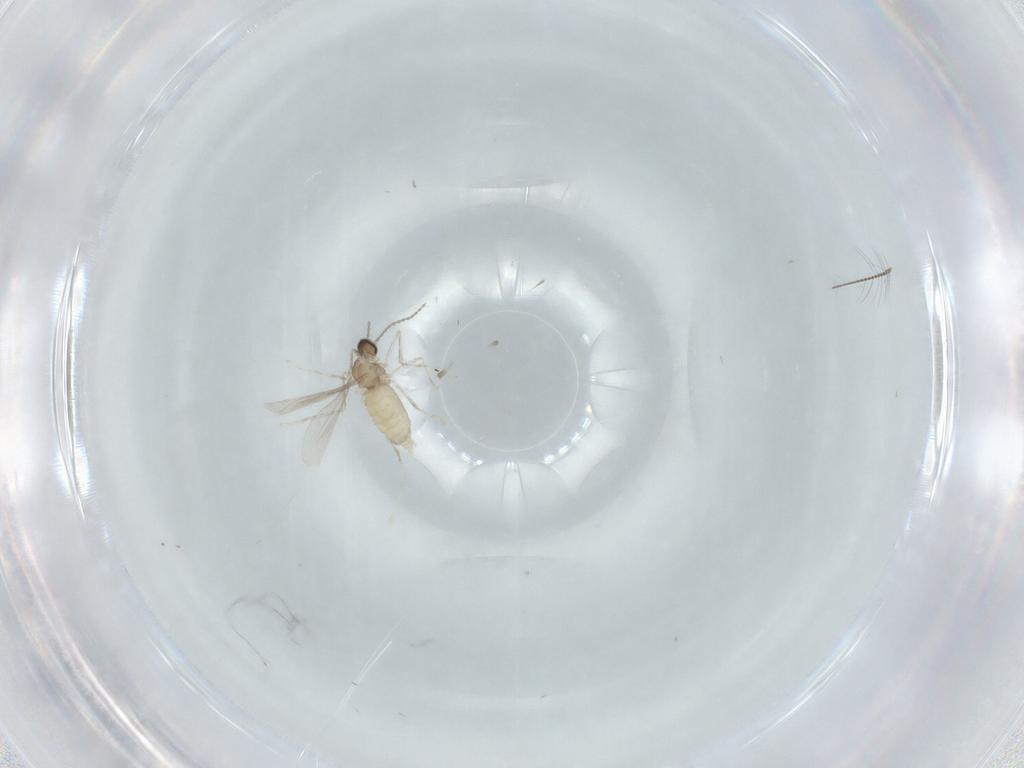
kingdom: Animalia
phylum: Arthropoda
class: Insecta
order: Diptera
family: Cecidomyiidae
